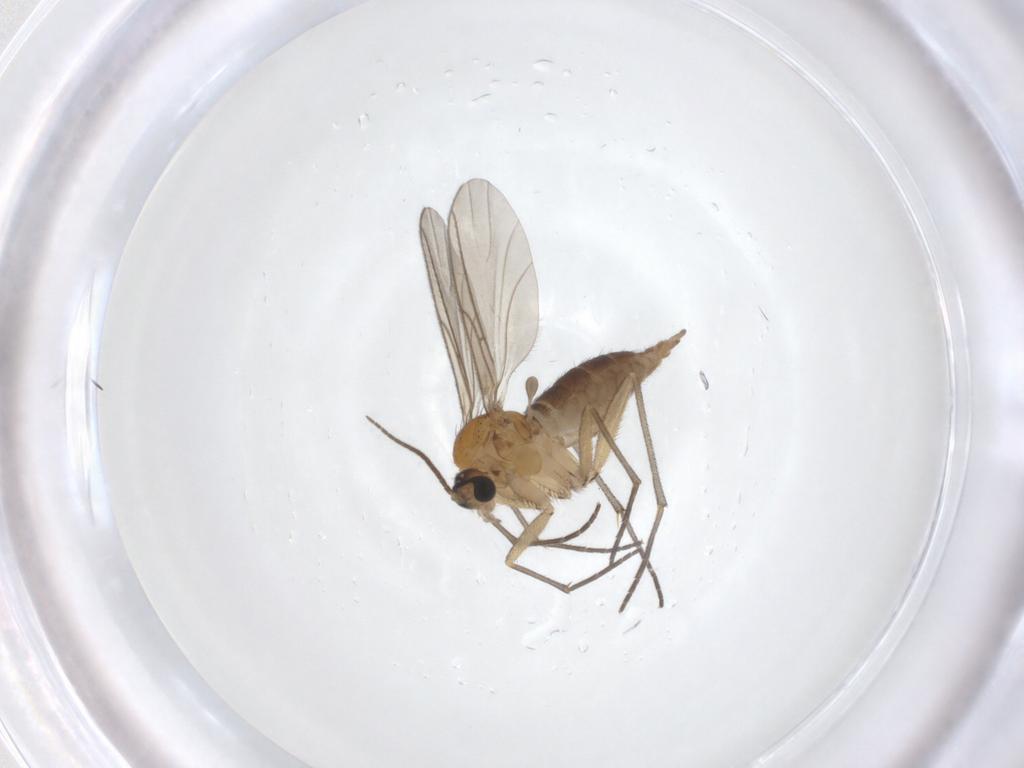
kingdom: Animalia
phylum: Arthropoda
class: Insecta
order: Diptera
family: Sciaridae
